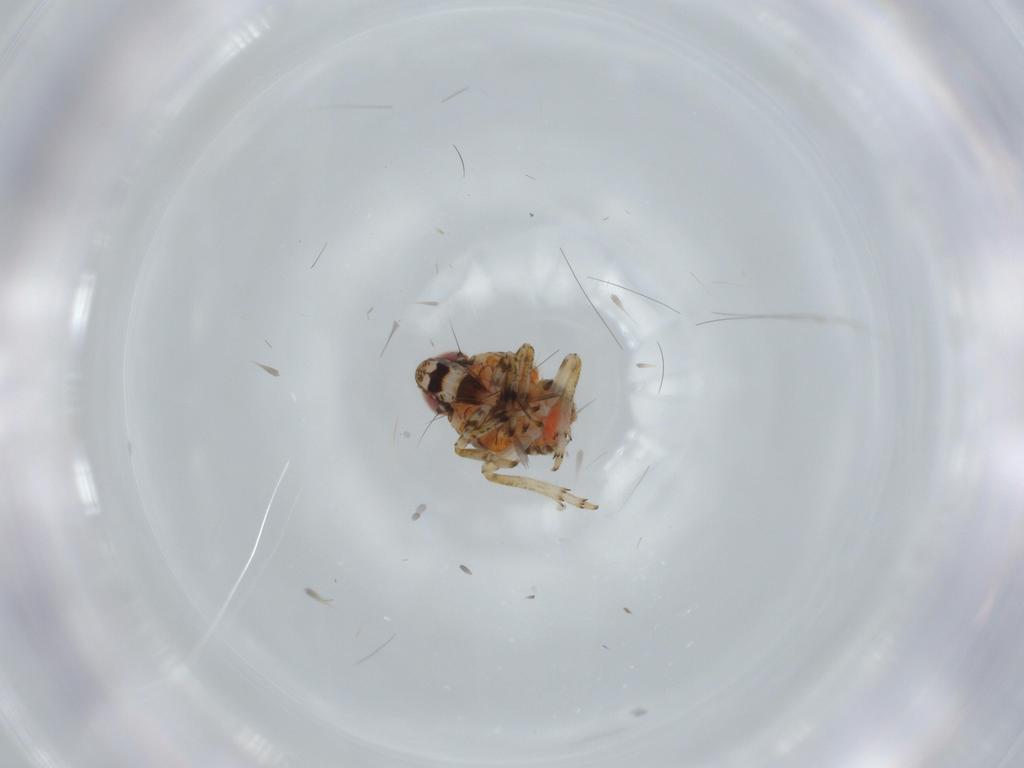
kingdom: Animalia
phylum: Arthropoda
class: Insecta
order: Hemiptera
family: Issidae
